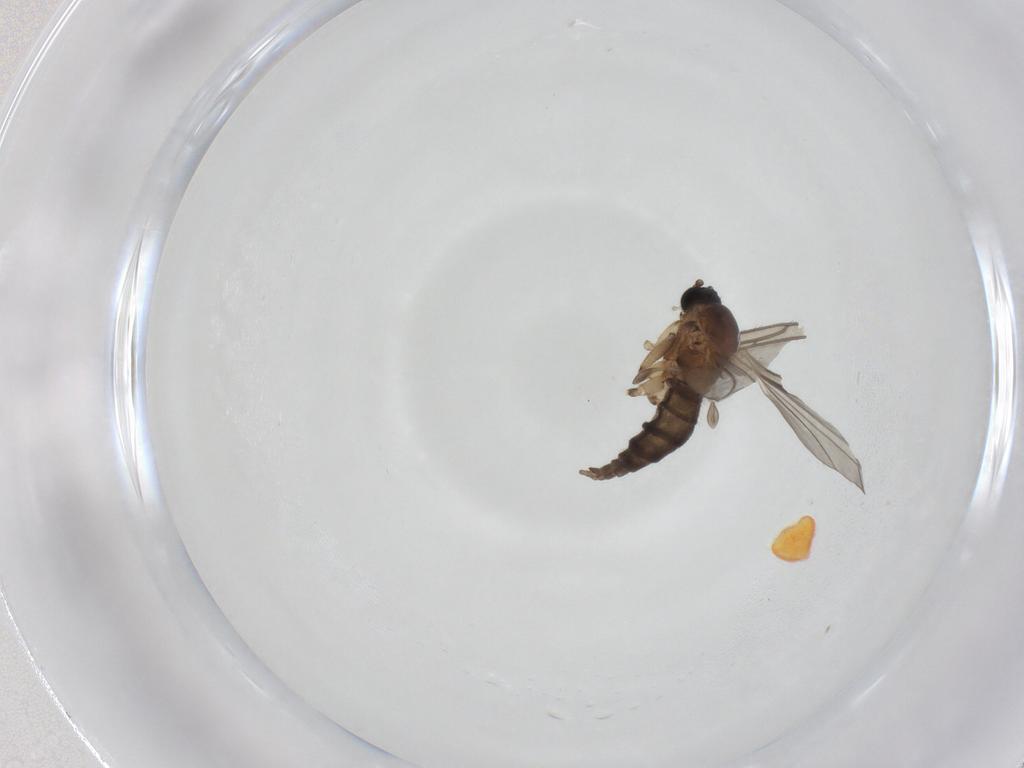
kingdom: Animalia
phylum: Arthropoda
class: Insecta
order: Diptera
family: Sciaridae
